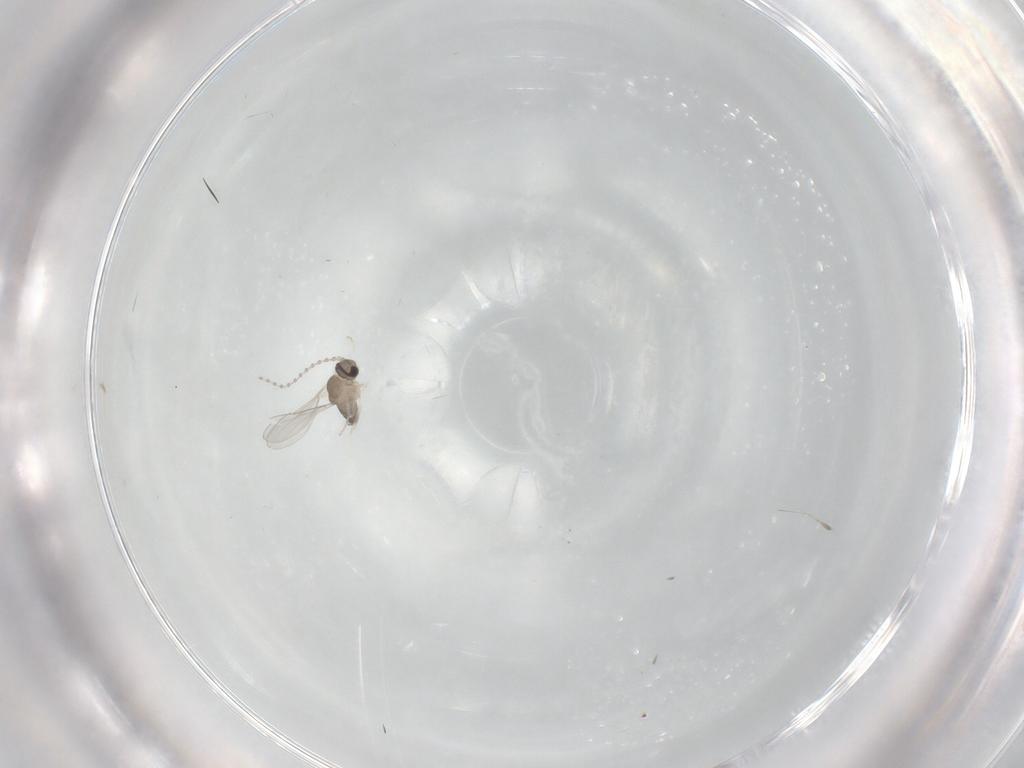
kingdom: Animalia
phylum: Arthropoda
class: Insecta
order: Diptera
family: Cecidomyiidae
